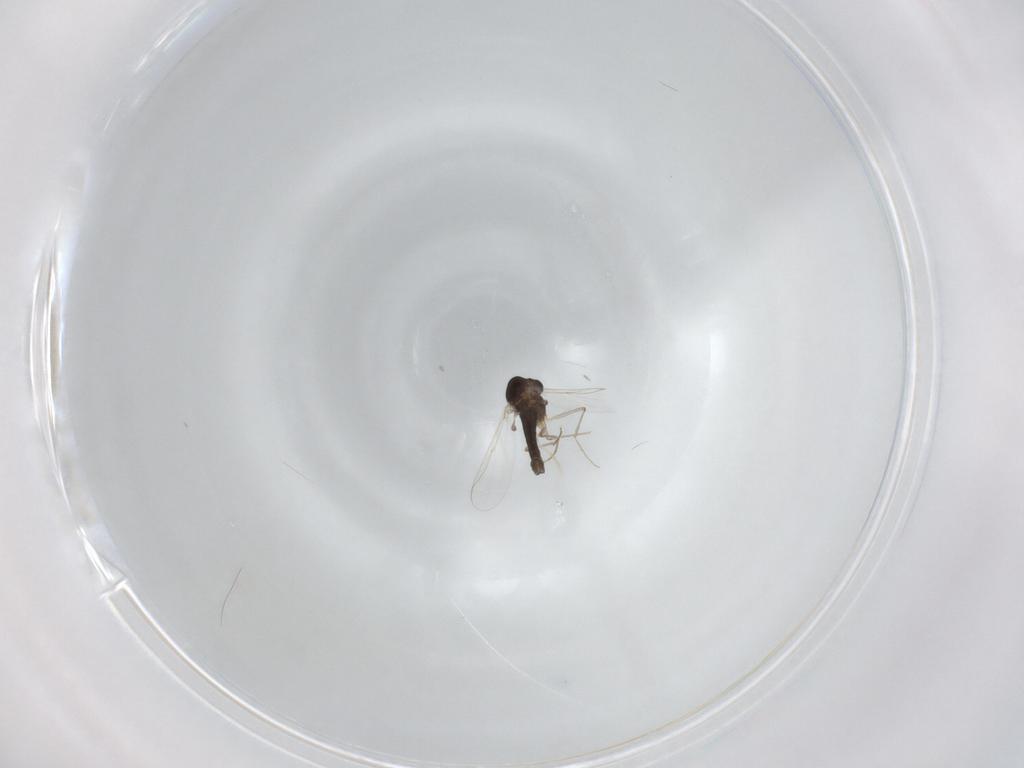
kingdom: Animalia
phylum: Arthropoda
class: Insecta
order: Diptera
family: Chironomidae
